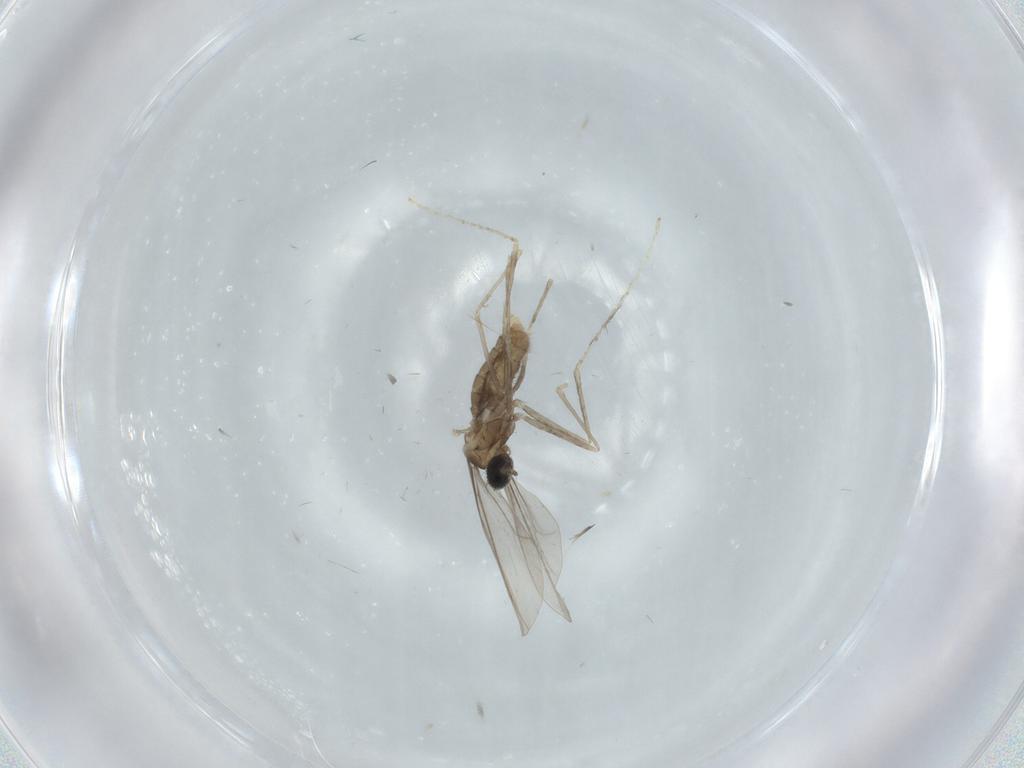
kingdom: Animalia
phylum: Arthropoda
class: Insecta
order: Diptera
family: Cecidomyiidae
